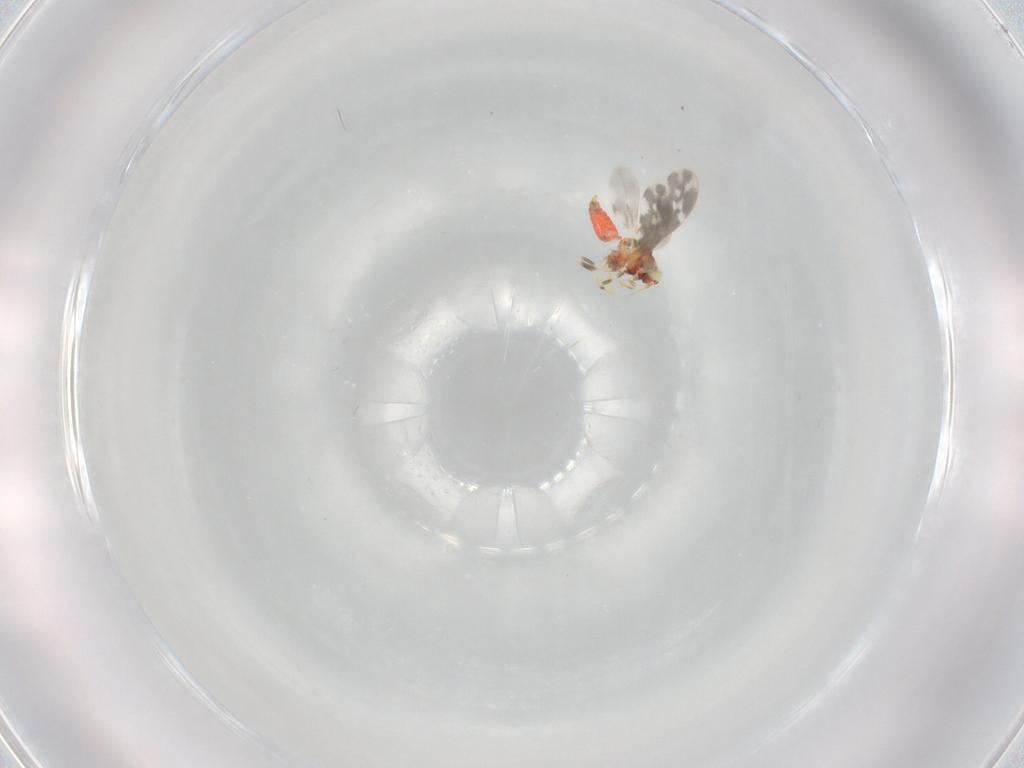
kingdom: Animalia
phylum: Arthropoda
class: Insecta
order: Hemiptera
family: Aleyrodidae
